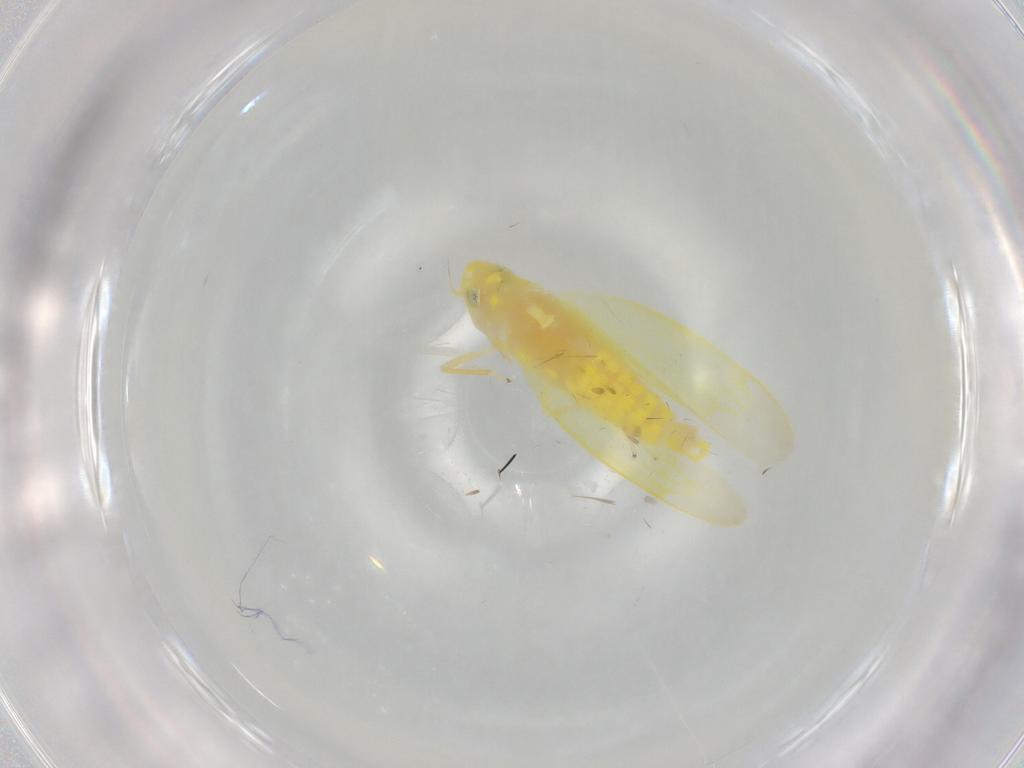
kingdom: Animalia
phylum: Arthropoda
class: Insecta
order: Hemiptera
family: Cicadellidae
